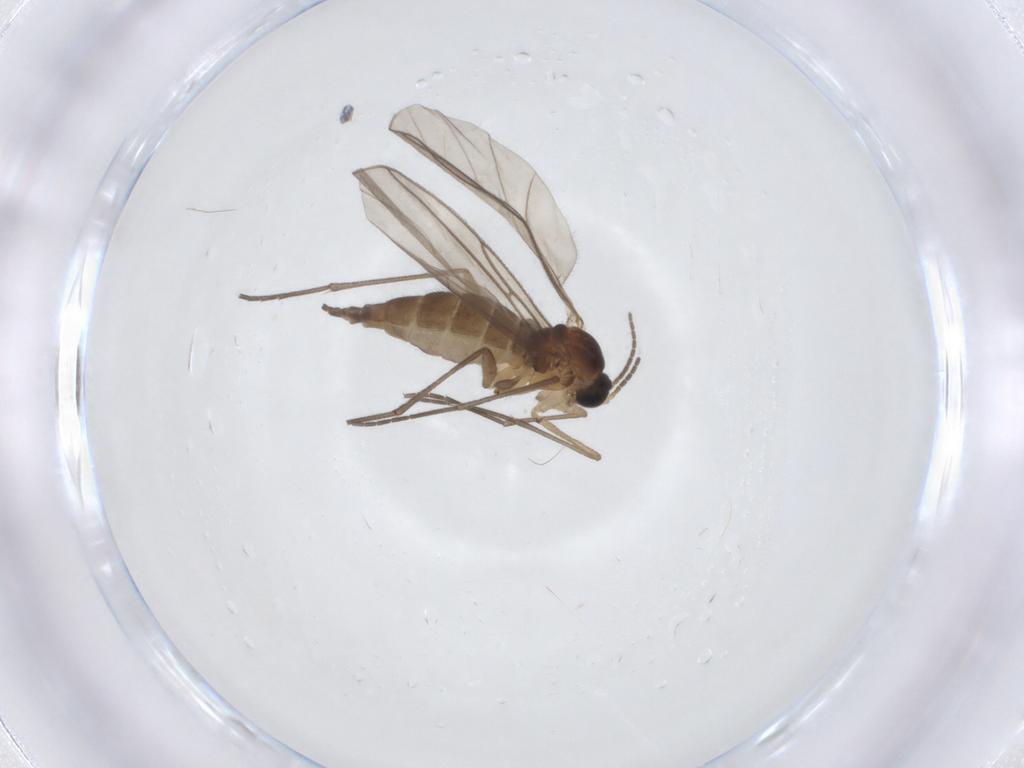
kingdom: Animalia
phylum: Arthropoda
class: Insecta
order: Diptera
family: Sciaridae
